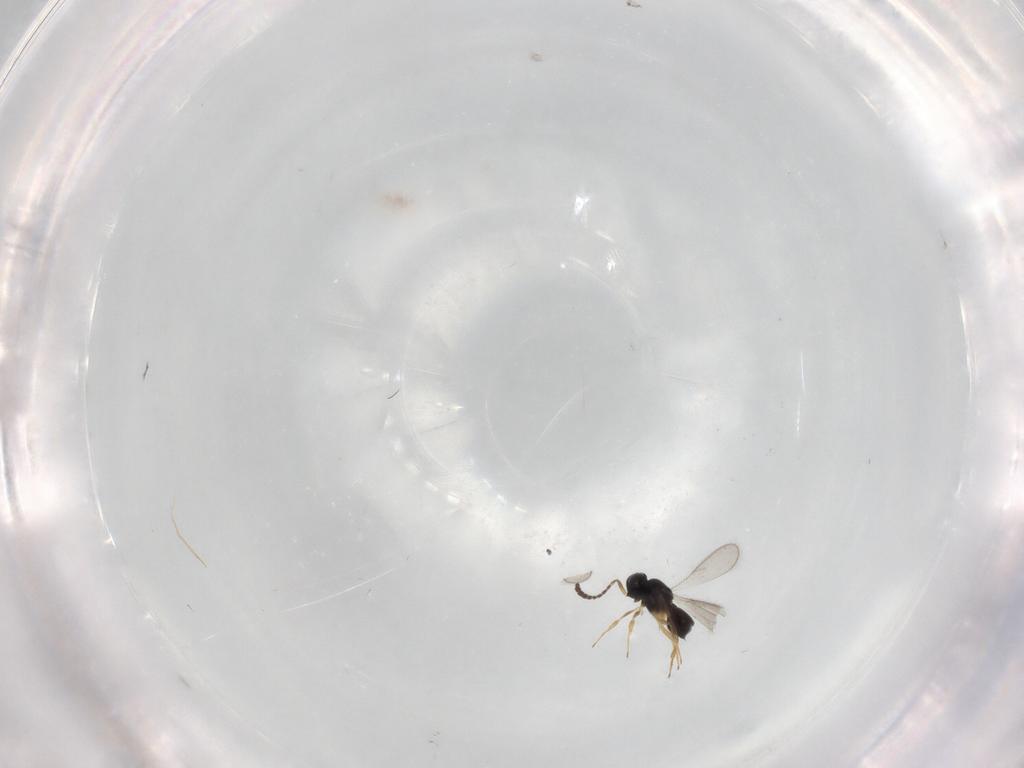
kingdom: Animalia
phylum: Arthropoda
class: Insecta
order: Hymenoptera
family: Scelionidae
